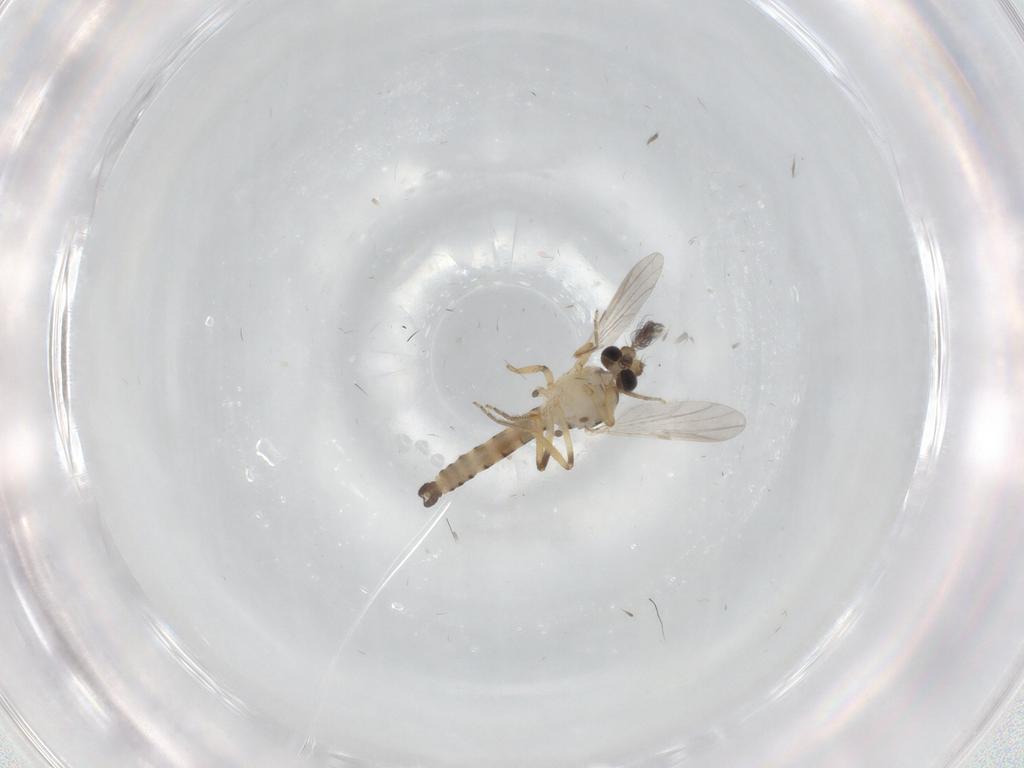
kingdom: Animalia
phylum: Arthropoda
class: Insecta
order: Diptera
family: Ceratopogonidae
